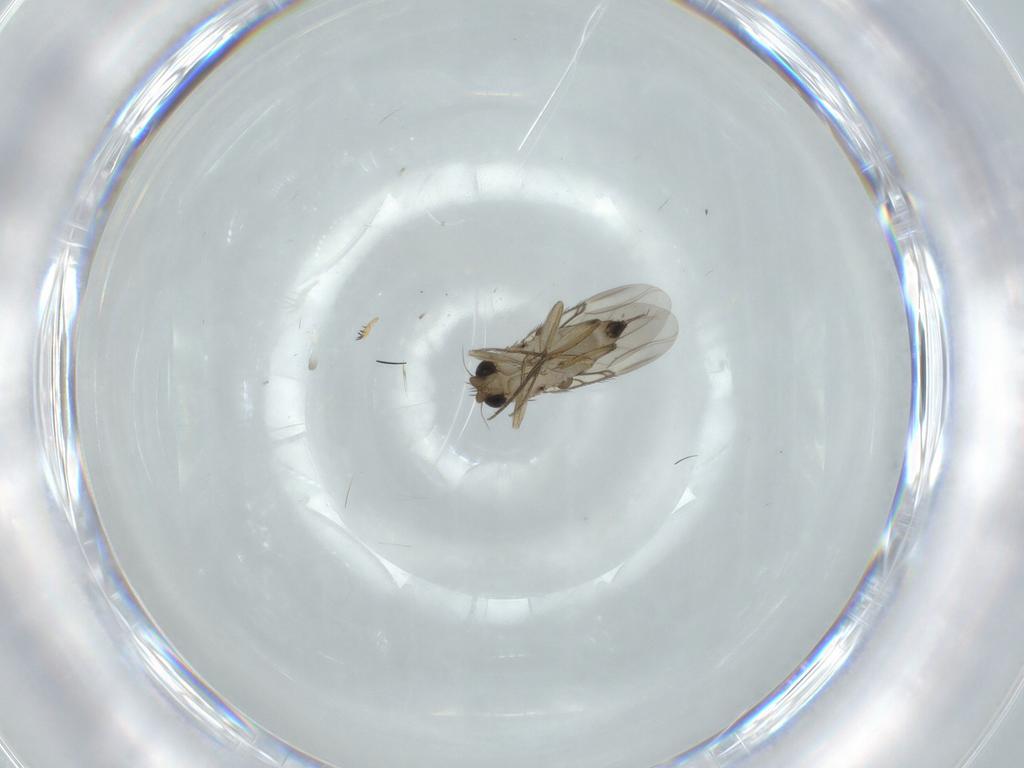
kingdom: Animalia
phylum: Arthropoda
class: Insecta
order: Diptera
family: Phoridae
